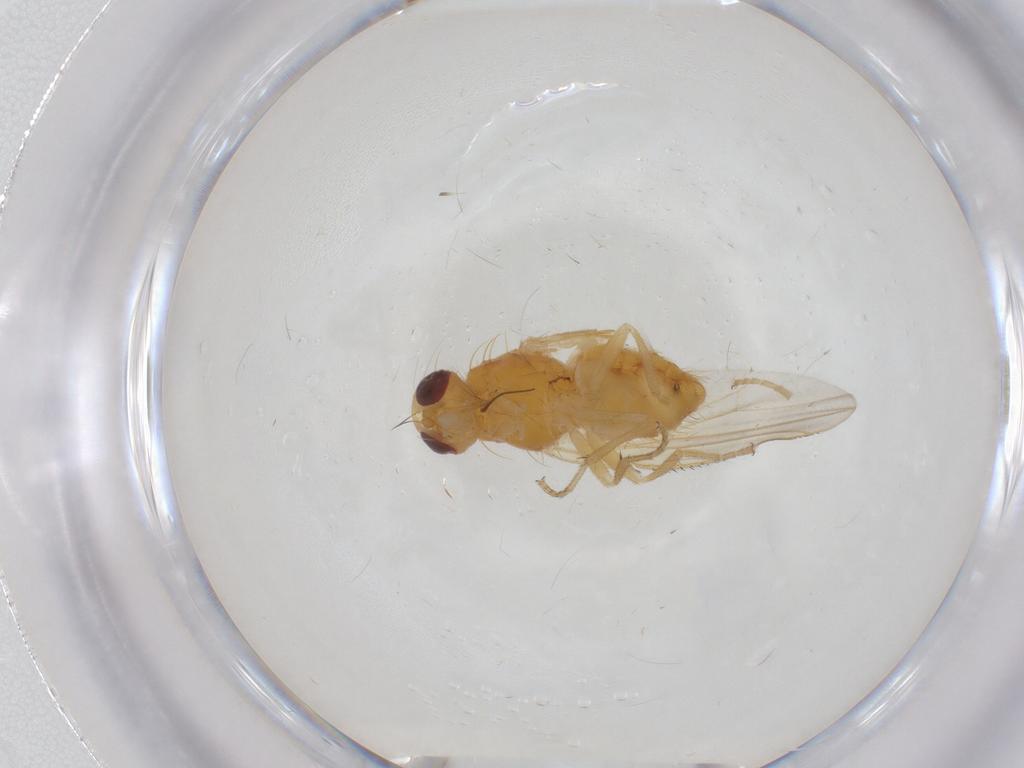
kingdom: Animalia
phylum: Arthropoda
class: Insecta
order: Diptera
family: Heleomyzidae
